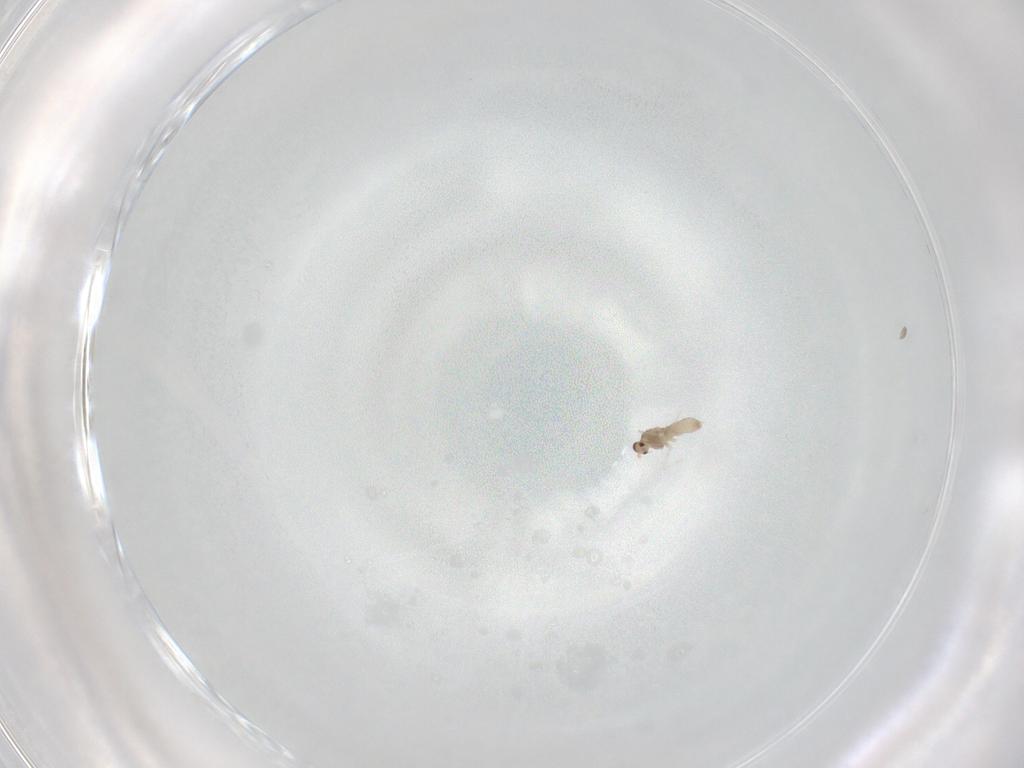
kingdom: Animalia
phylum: Arthropoda
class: Insecta
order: Diptera
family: Cecidomyiidae
